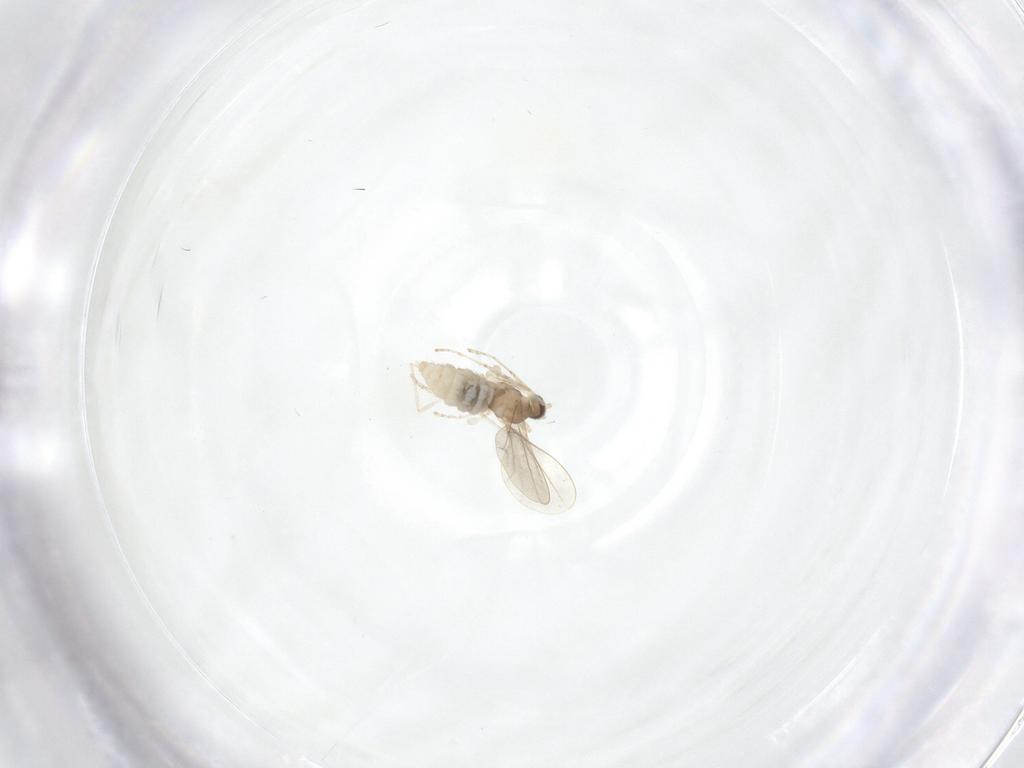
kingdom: Animalia
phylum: Arthropoda
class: Insecta
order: Diptera
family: Cecidomyiidae
